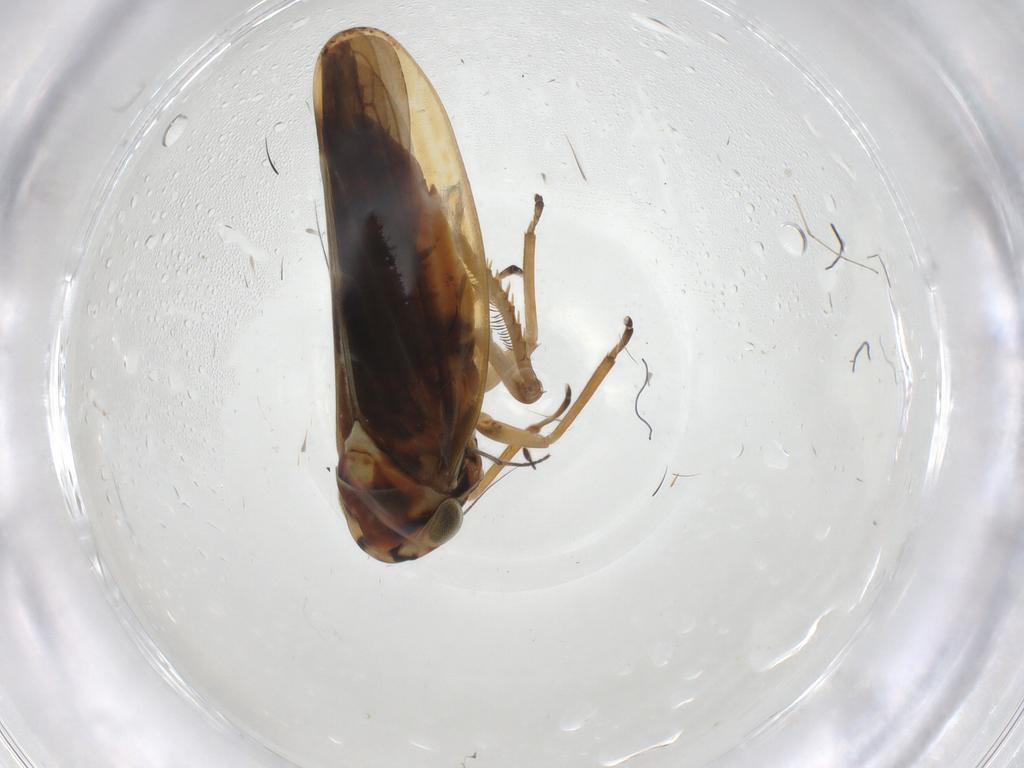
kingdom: Animalia
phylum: Arthropoda
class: Insecta
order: Hemiptera
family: Cicadellidae
